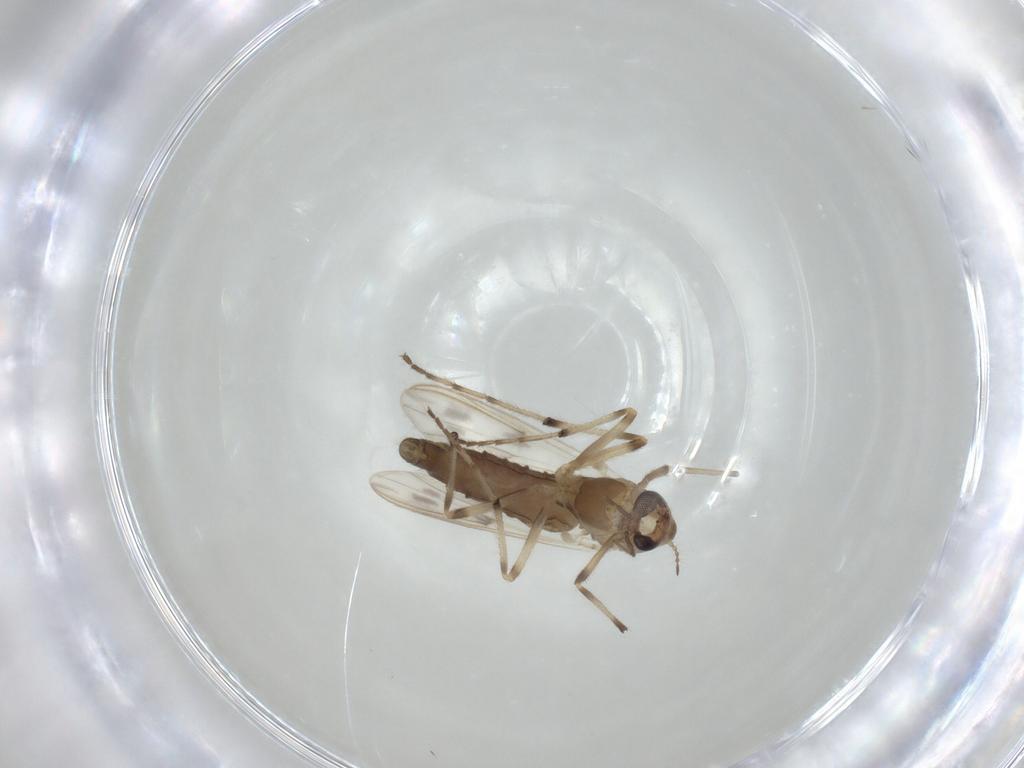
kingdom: Animalia
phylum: Arthropoda
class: Insecta
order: Diptera
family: Chironomidae
